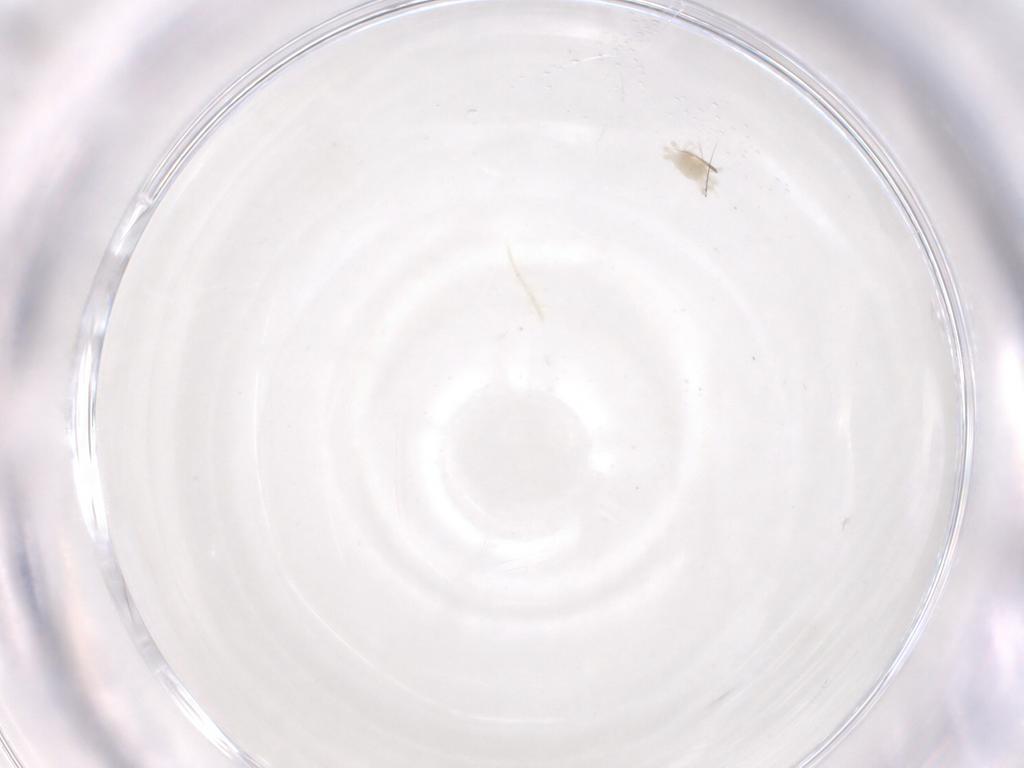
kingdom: Animalia
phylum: Arthropoda
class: Arachnida
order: Trombidiformes
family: Anystidae
